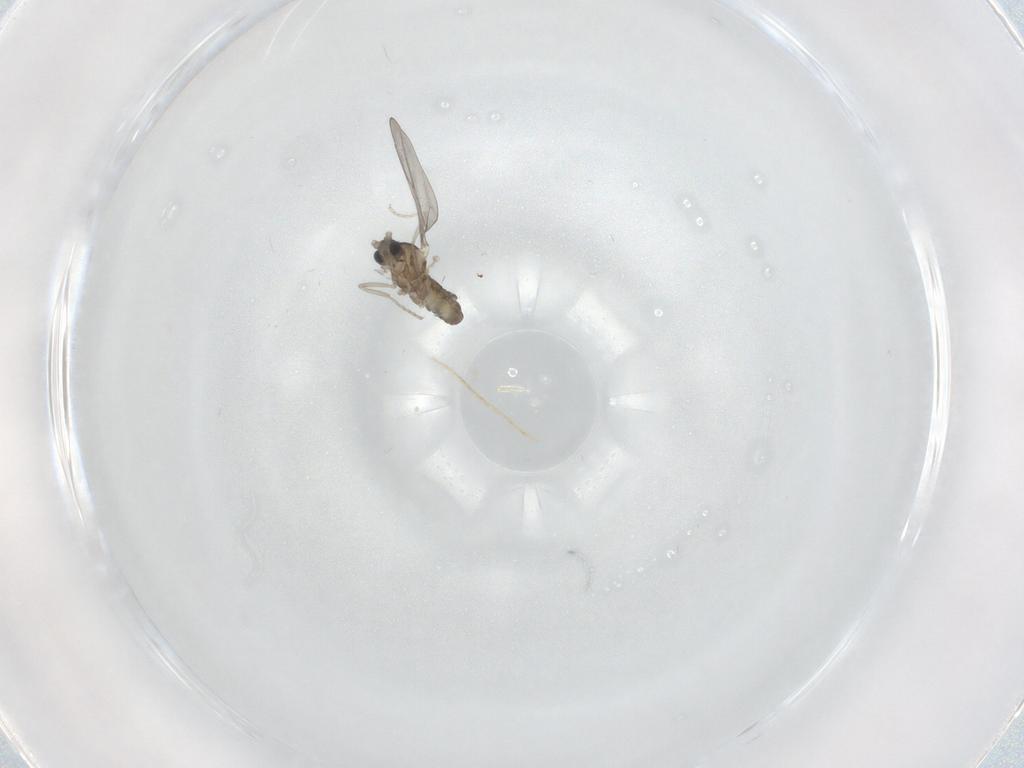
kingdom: Animalia
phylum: Arthropoda
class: Insecta
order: Diptera
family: Cecidomyiidae
